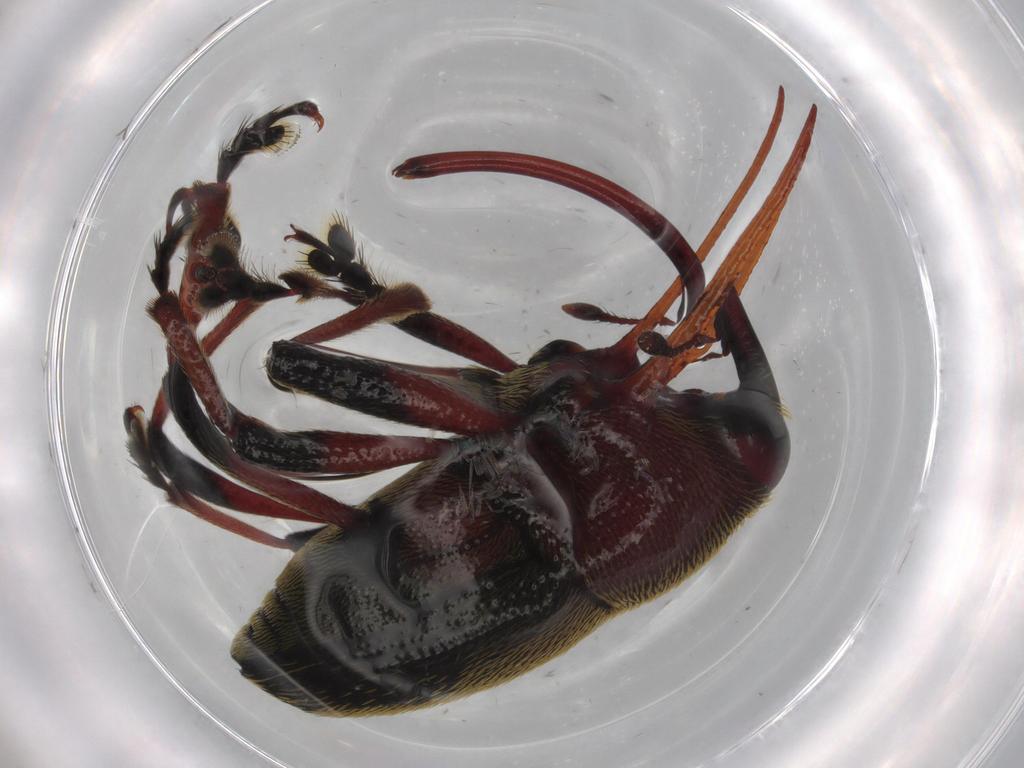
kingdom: Animalia
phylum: Arthropoda
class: Insecta
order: Coleoptera
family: Aderidae
